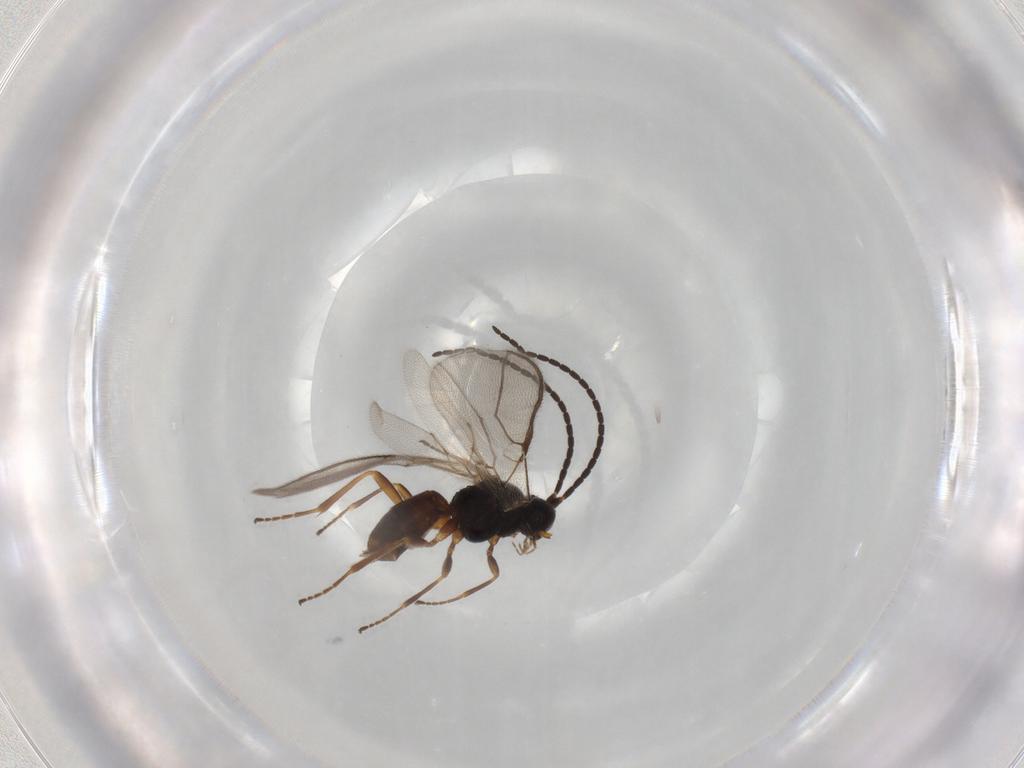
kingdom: Animalia
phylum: Arthropoda
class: Insecta
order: Hymenoptera
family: Braconidae
